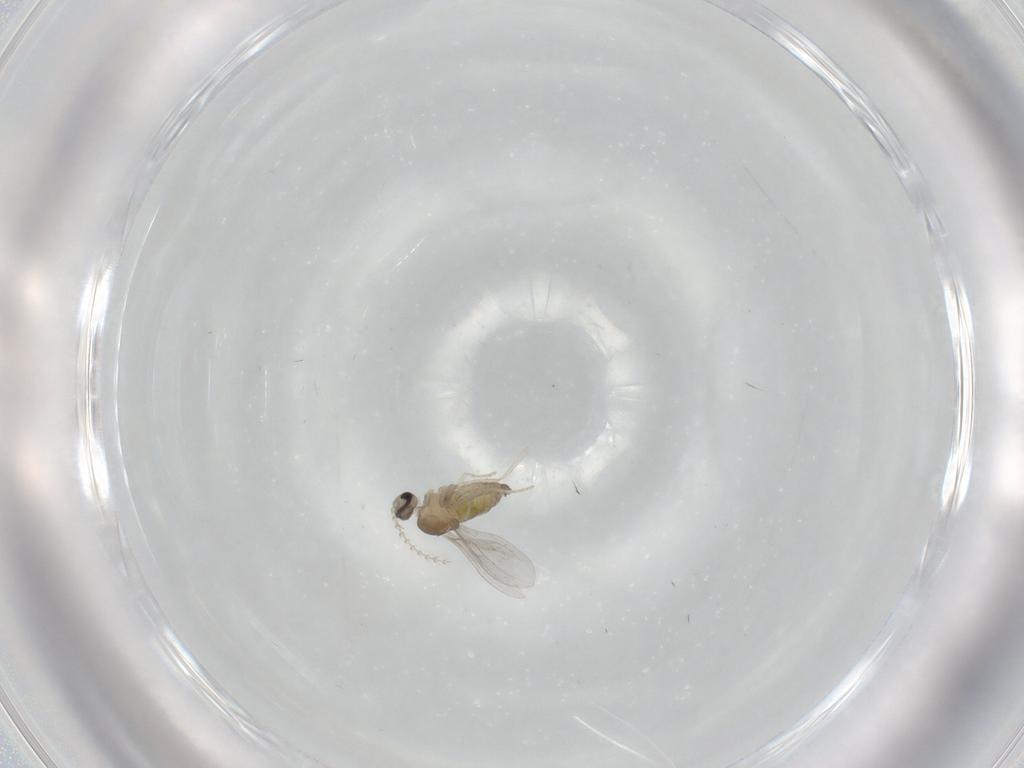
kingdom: Animalia
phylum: Arthropoda
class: Insecta
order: Diptera
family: Cecidomyiidae
